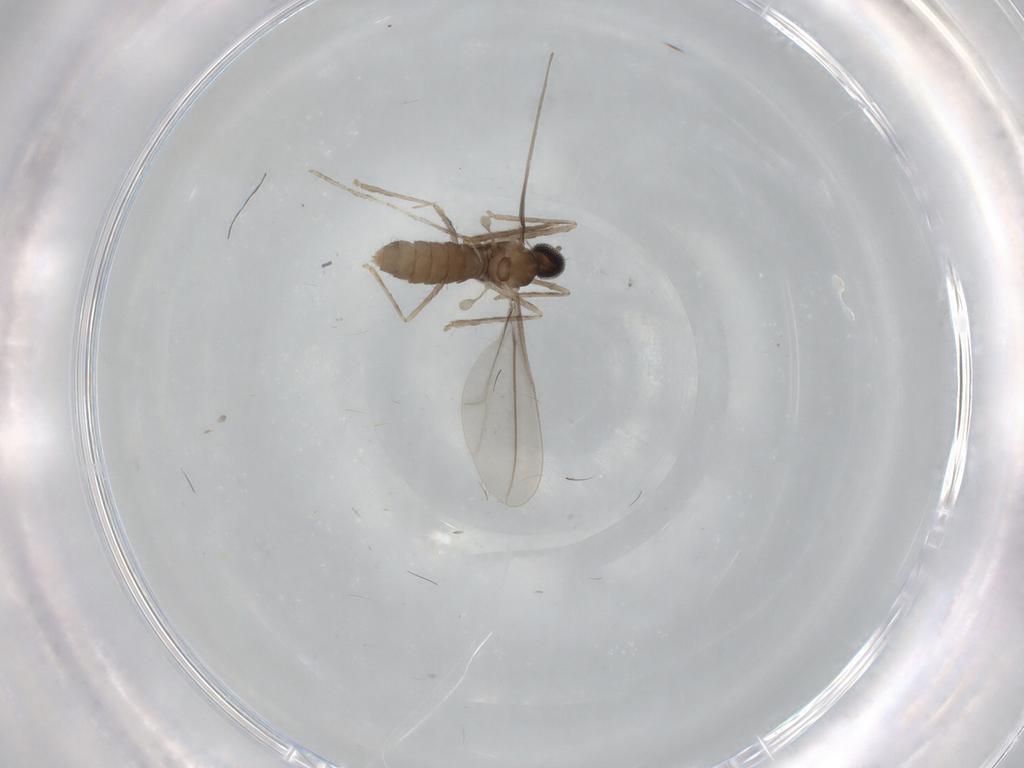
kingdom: Animalia
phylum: Arthropoda
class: Insecta
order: Diptera
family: Cecidomyiidae
